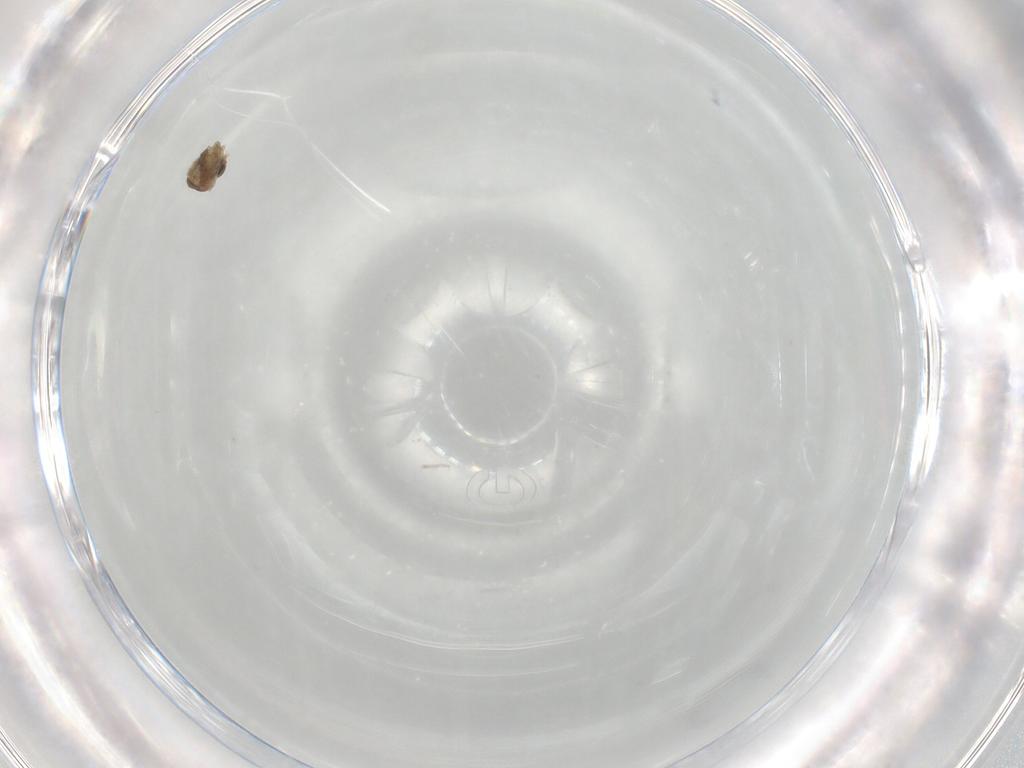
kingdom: Animalia
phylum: Arthropoda
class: Insecta
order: Diptera
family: Cecidomyiidae
